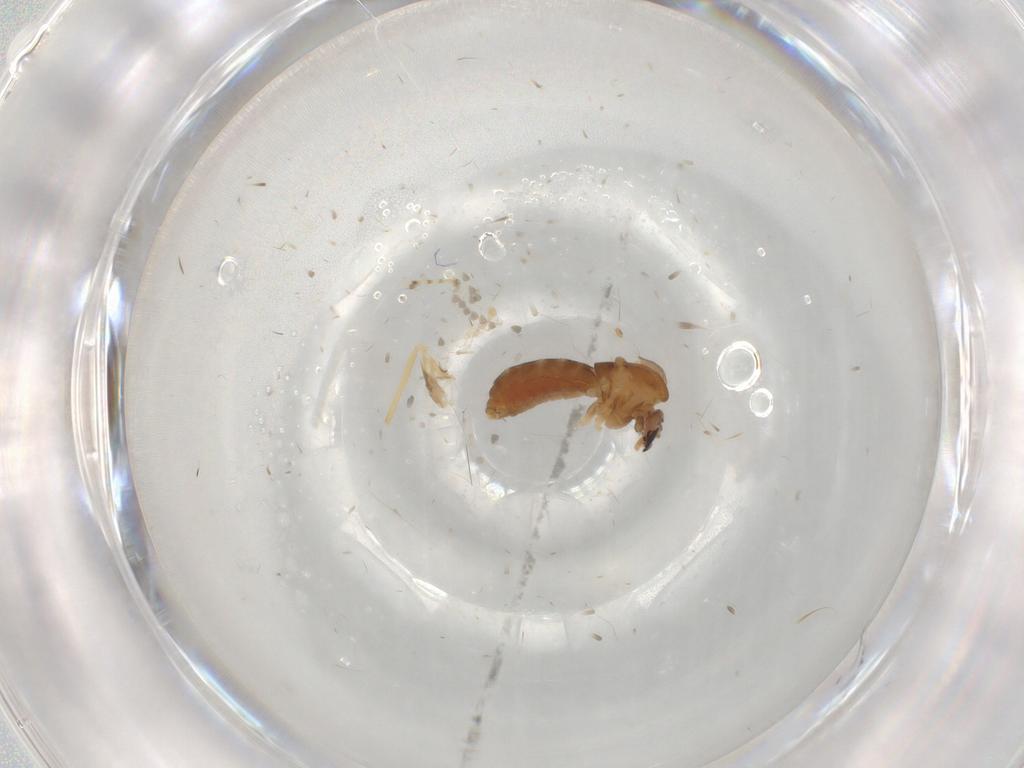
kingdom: Animalia
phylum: Arthropoda
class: Insecta
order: Diptera
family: Chironomidae
